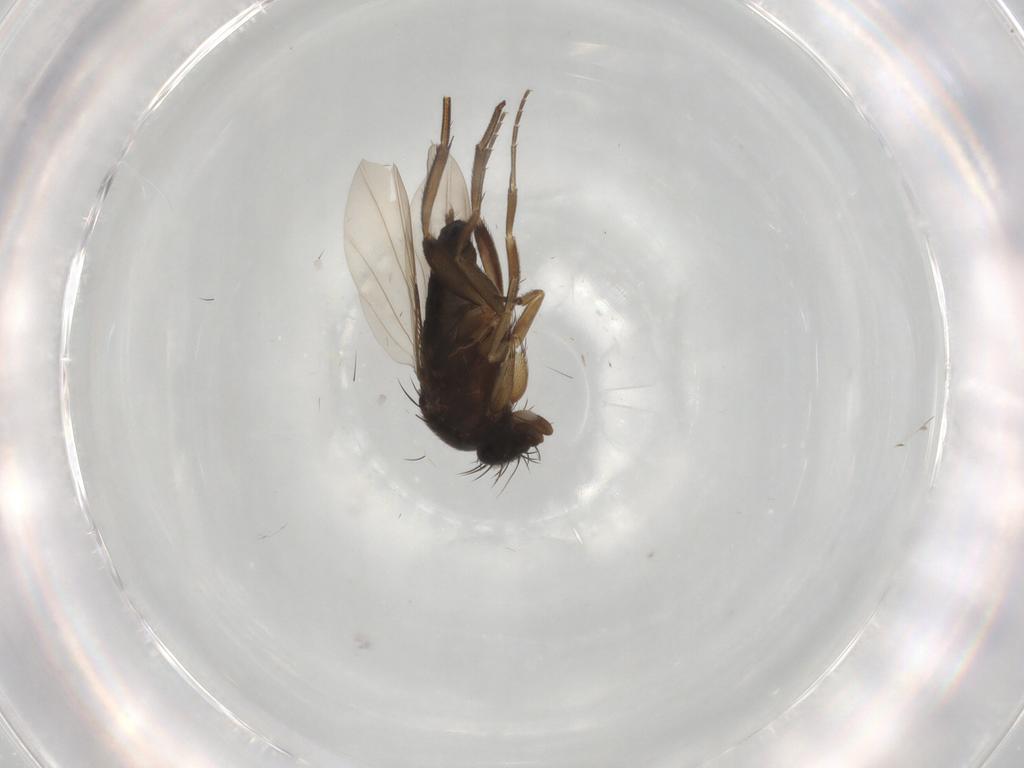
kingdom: Animalia
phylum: Arthropoda
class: Insecta
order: Diptera
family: Phoridae
